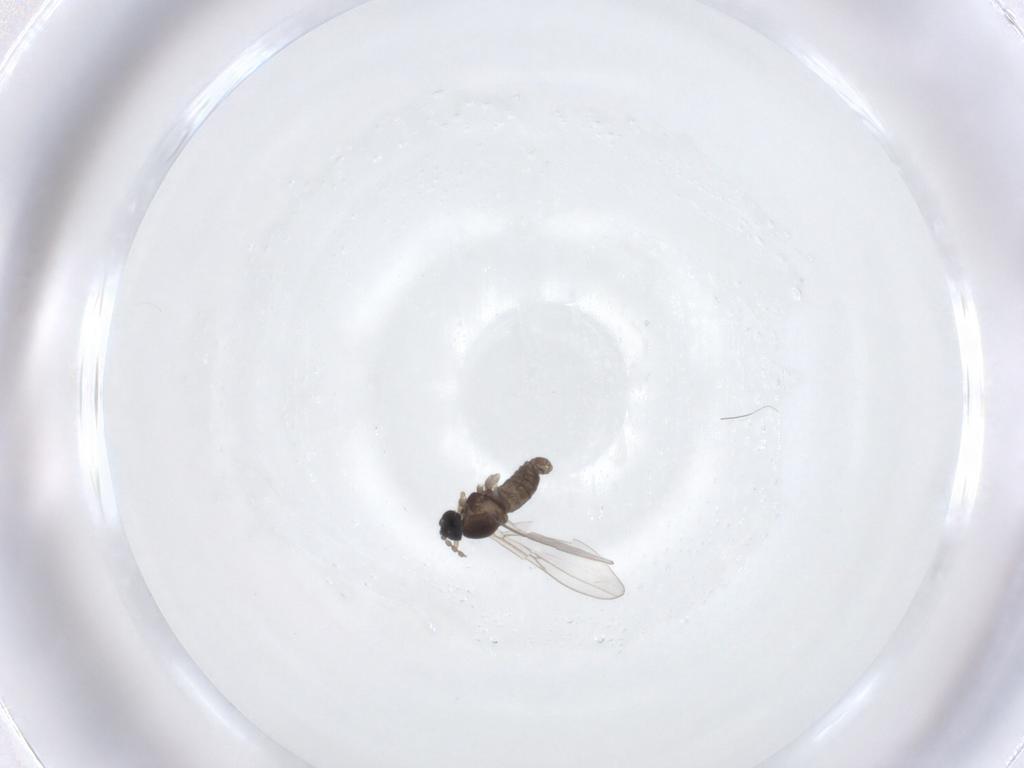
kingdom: Animalia
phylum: Arthropoda
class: Insecta
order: Diptera
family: Cecidomyiidae
